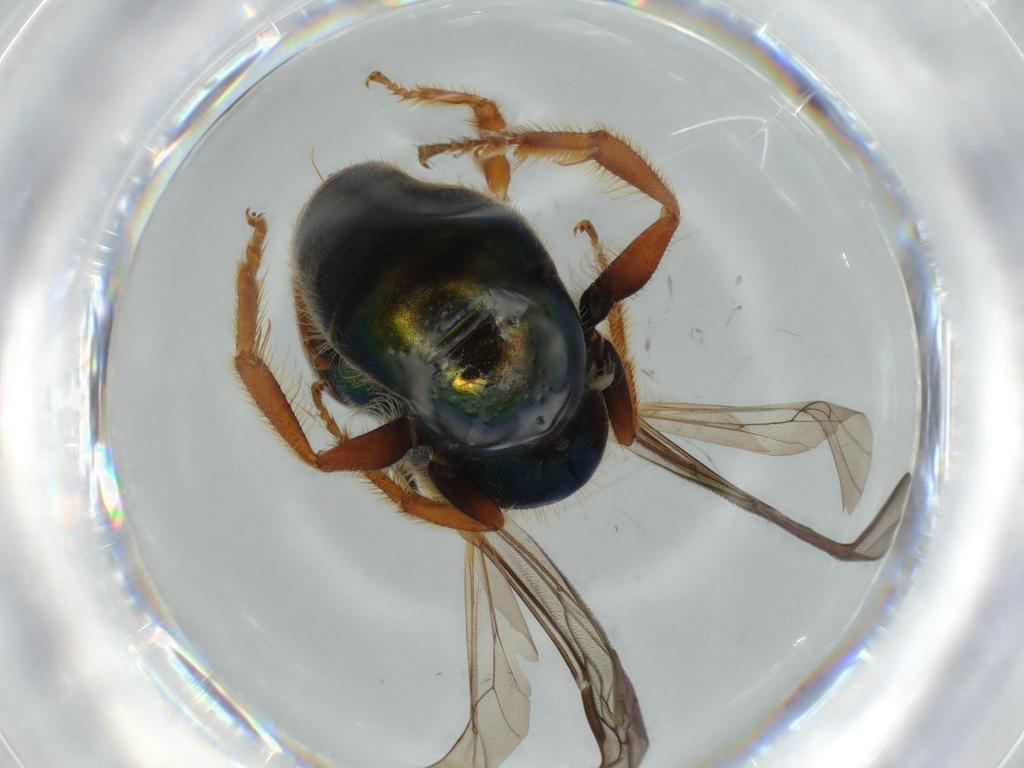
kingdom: Animalia
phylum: Arthropoda
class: Insecta
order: Hymenoptera
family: Halictidae
